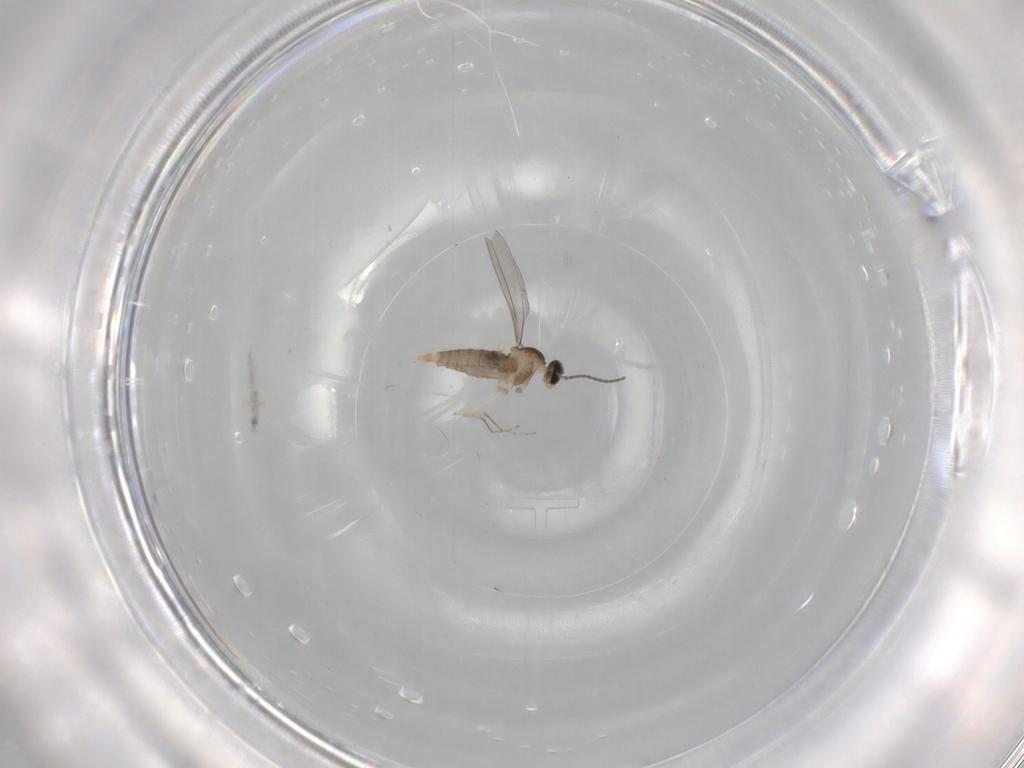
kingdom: Animalia
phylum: Arthropoda
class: Insecta
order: Diptera
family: Cecidomyiidae
